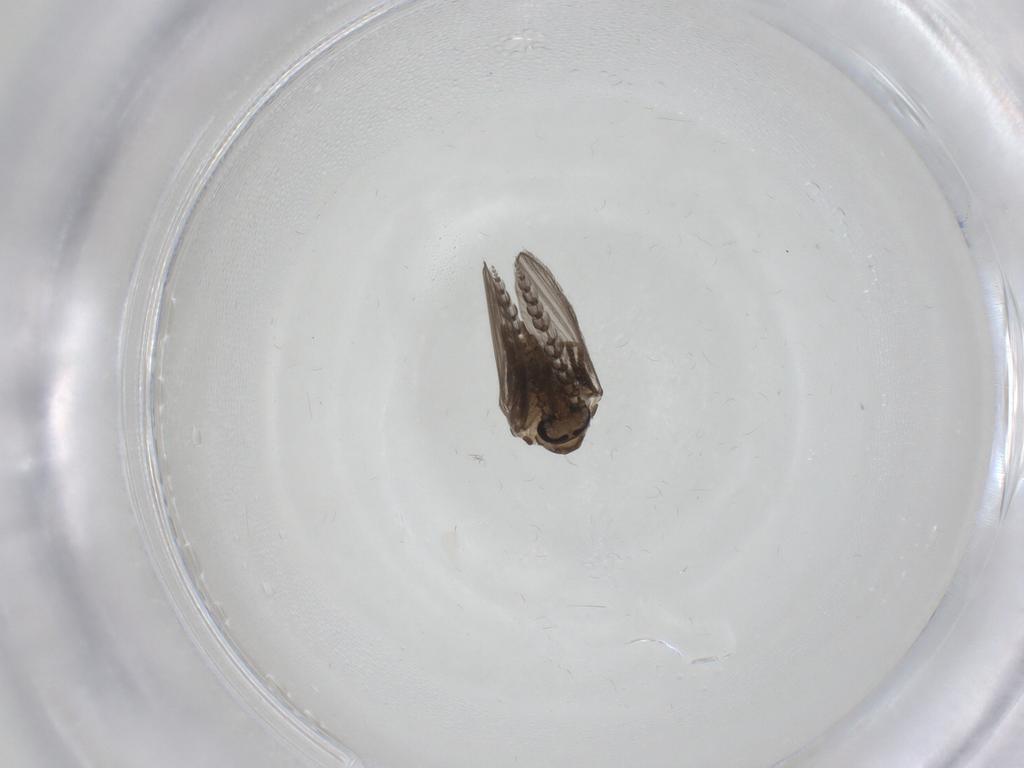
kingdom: Animalia
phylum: Arthropoda
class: Insecta
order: Diptera
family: Psychodidae
